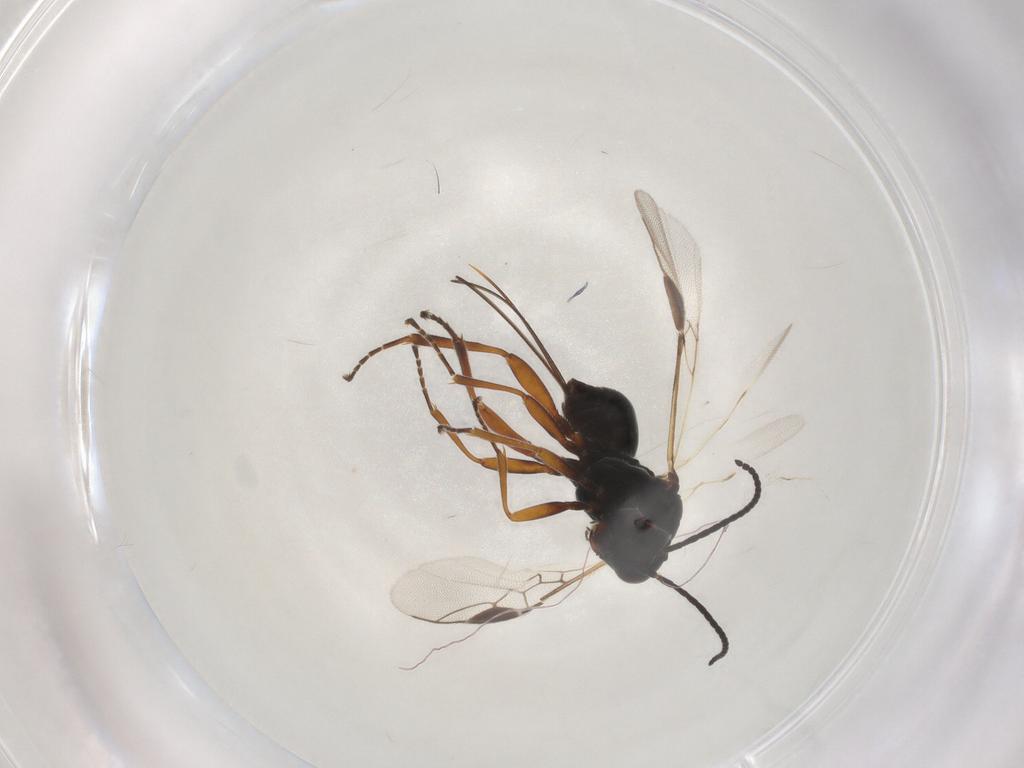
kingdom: Animalia
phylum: Arthropoda
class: Insecta
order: Hymenoptera
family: Braconidae
